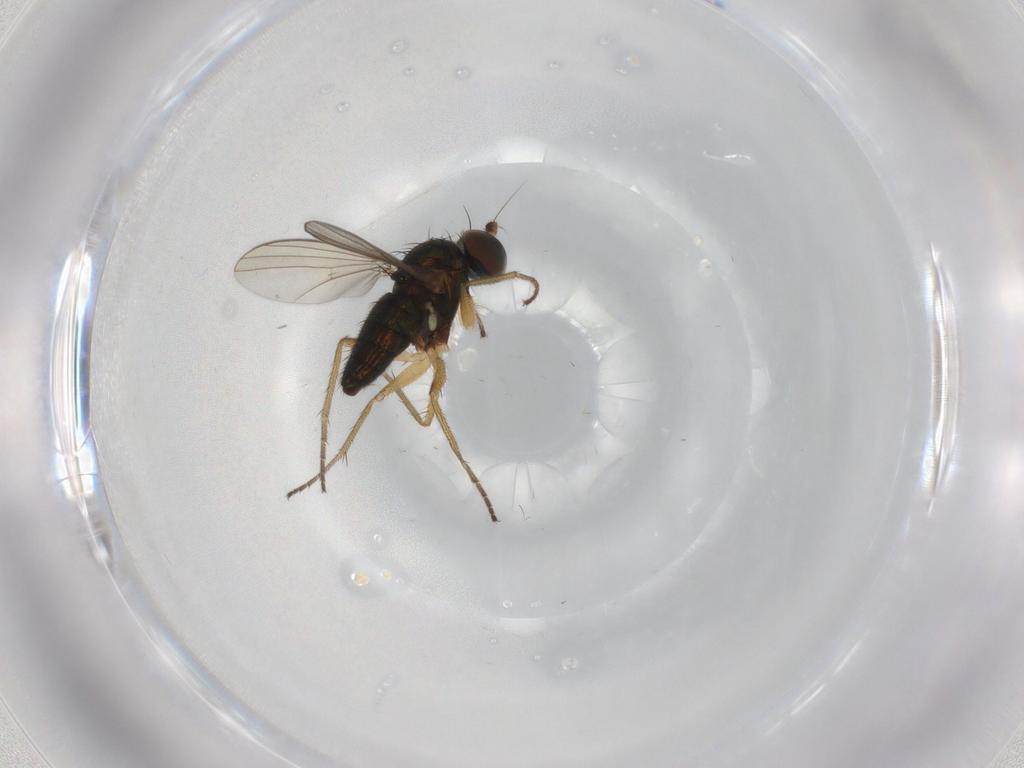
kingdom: Animalia
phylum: Arthropoda
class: Insecta
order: Diptera
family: Dolichopodidae
